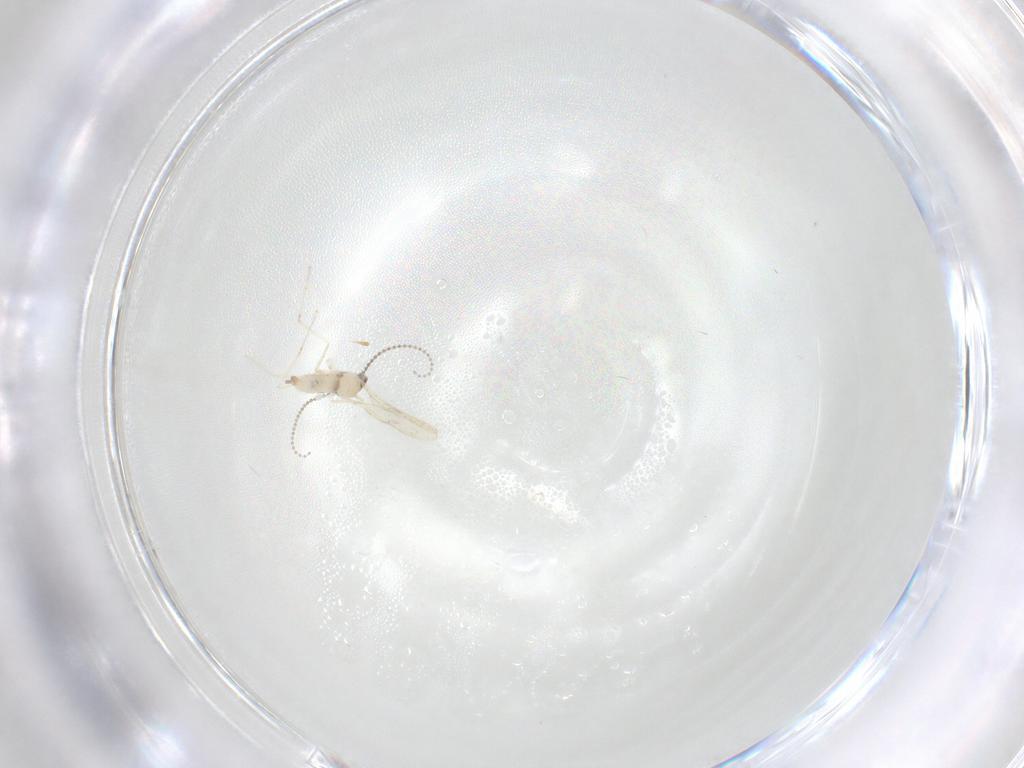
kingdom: Animalia
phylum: Arthropoda
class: Insecta
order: Diptera
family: Cecidomyiidae
